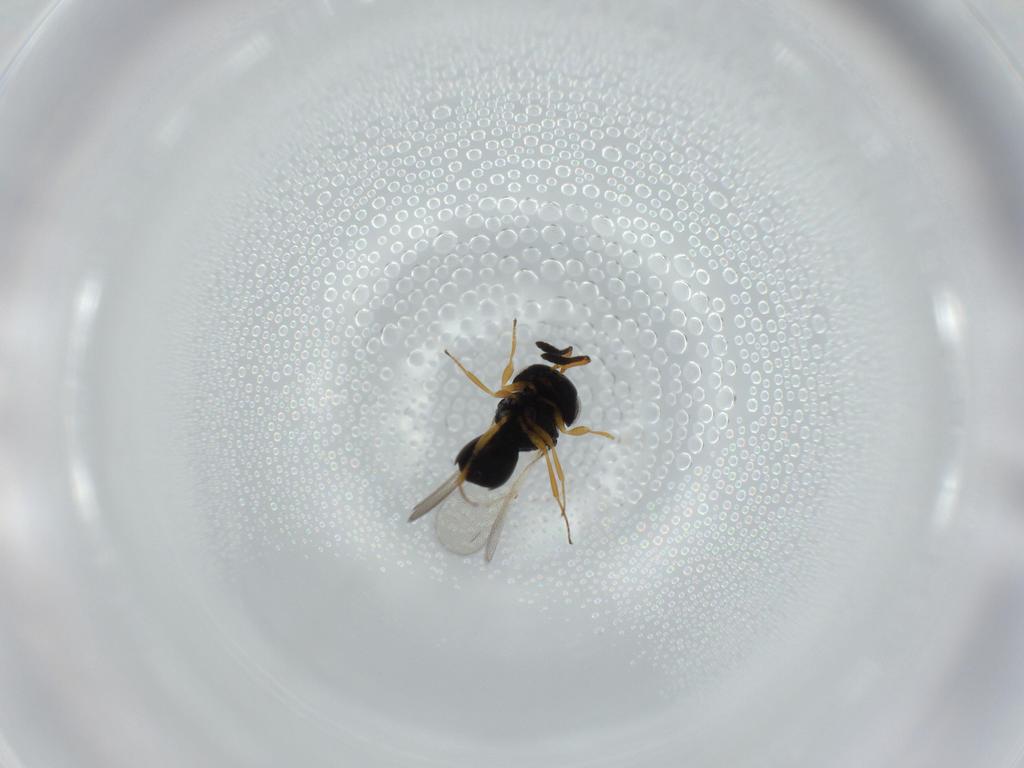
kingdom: Animalia
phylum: Arthropoda
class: Insecta
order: Hymenoptera
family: Scelionidae
